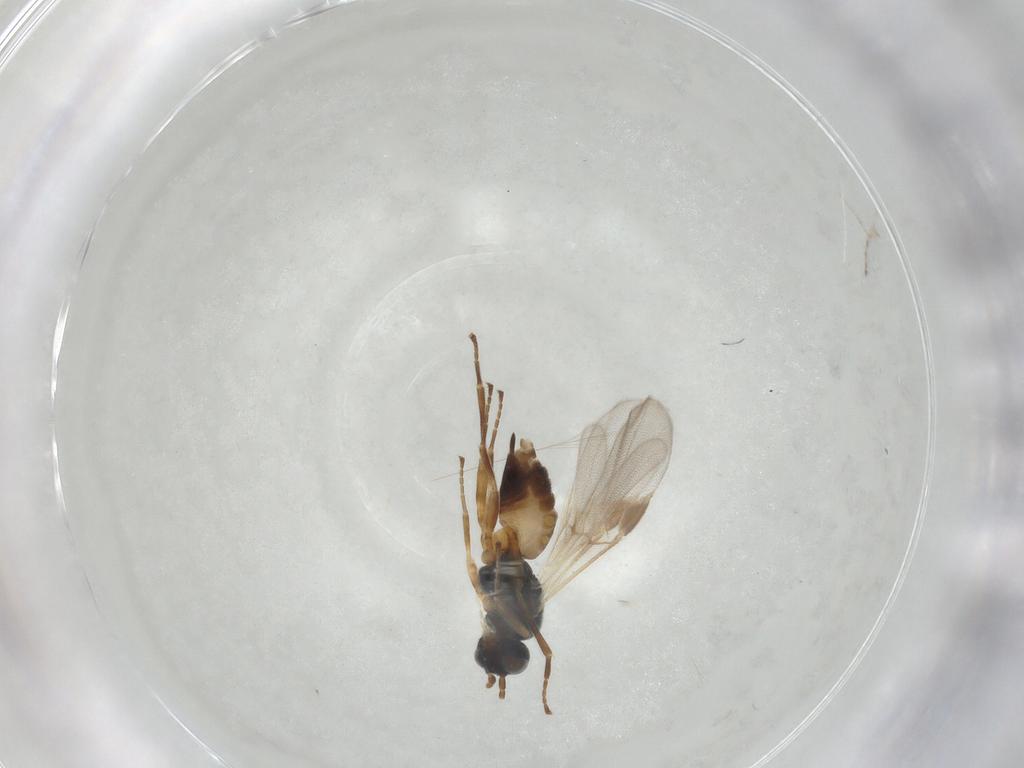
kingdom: Animalia
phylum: Arthropoda
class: Insecta
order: Hymenoptera
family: Braconidae
